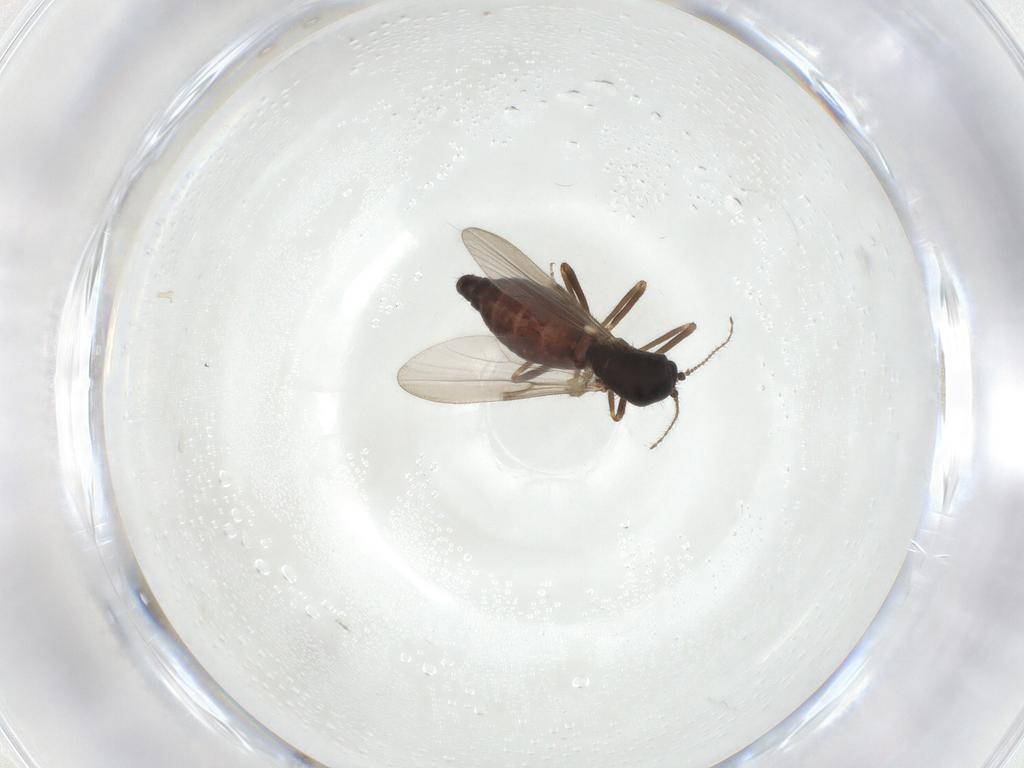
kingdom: Animalia
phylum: Arthropoda
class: Insecta
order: Diptera
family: Ceratopogonidae
